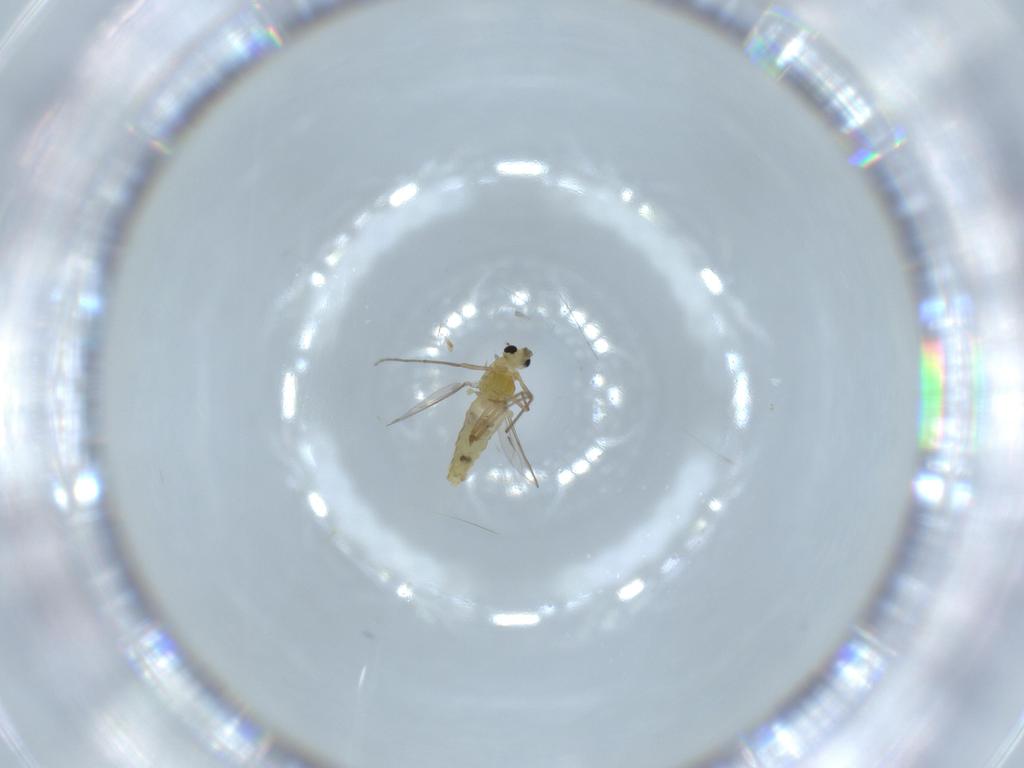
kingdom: Animalia
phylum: Arthropoda
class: Insecta
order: Diptera
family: Chironomidae
